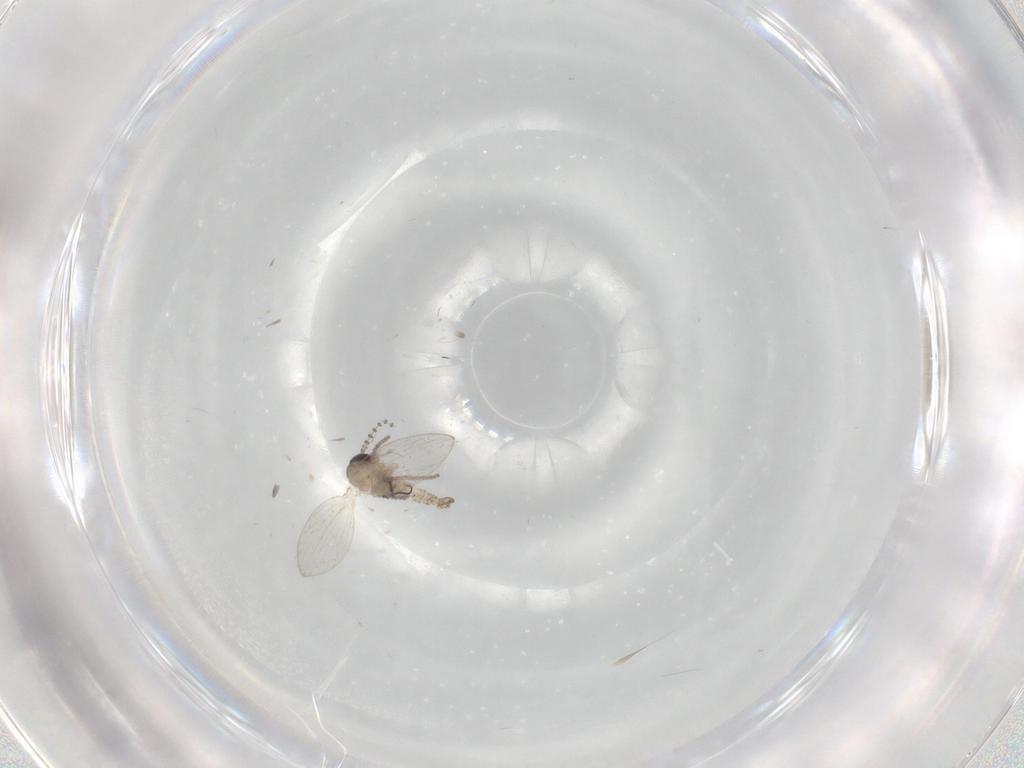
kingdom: Animalia
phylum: Arthropoda
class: Insecta
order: Diptera
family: Psychodidae
